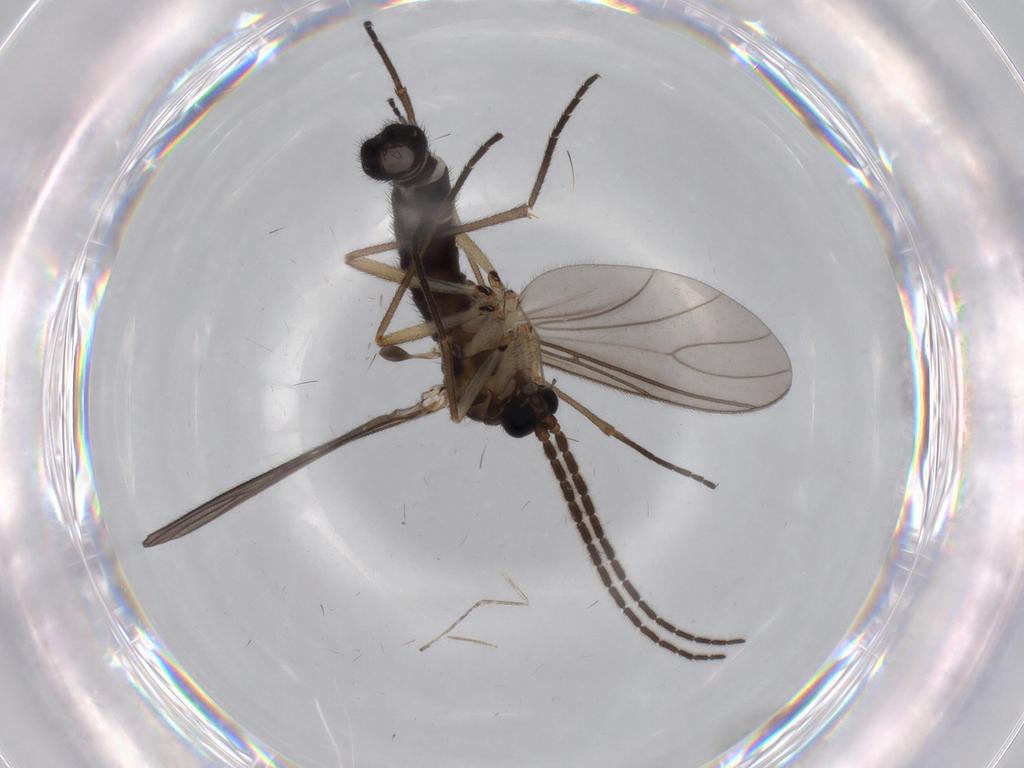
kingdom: Animalia
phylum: Arthropoda
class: Insecta
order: Diptera
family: Sciaridae
